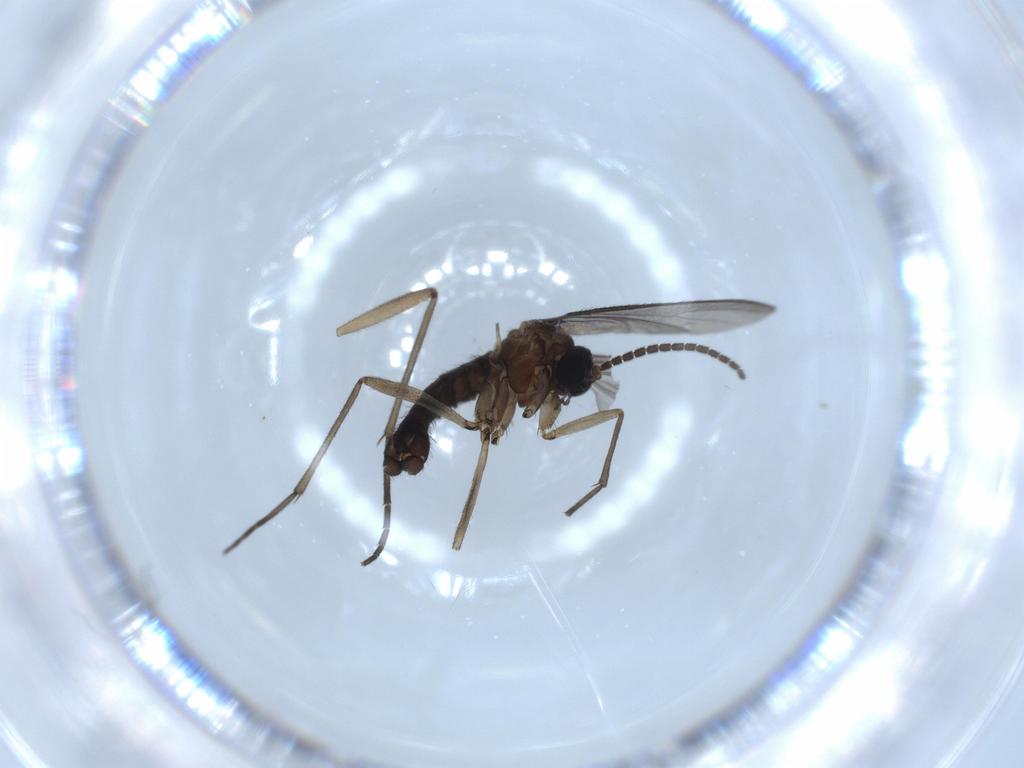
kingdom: Animalia
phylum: Arthropoda
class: Insecta
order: Diptera
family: Sciaridae
